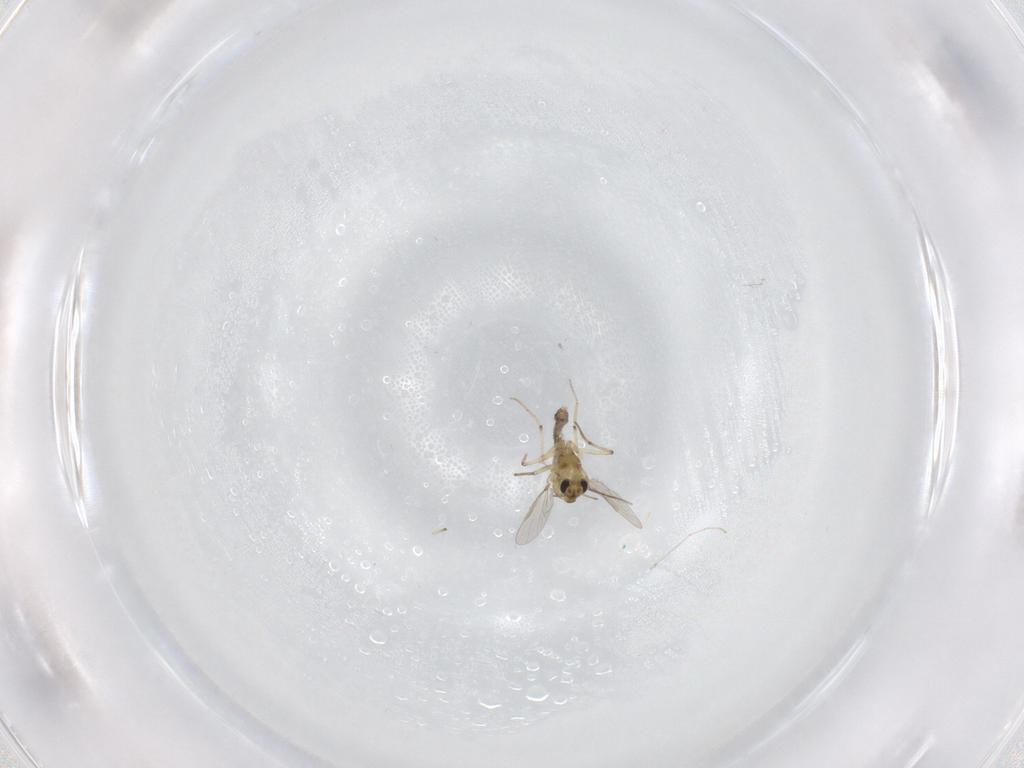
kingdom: Animalia
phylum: Arthropoda
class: Insecta
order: Diptera
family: Chironomidae
